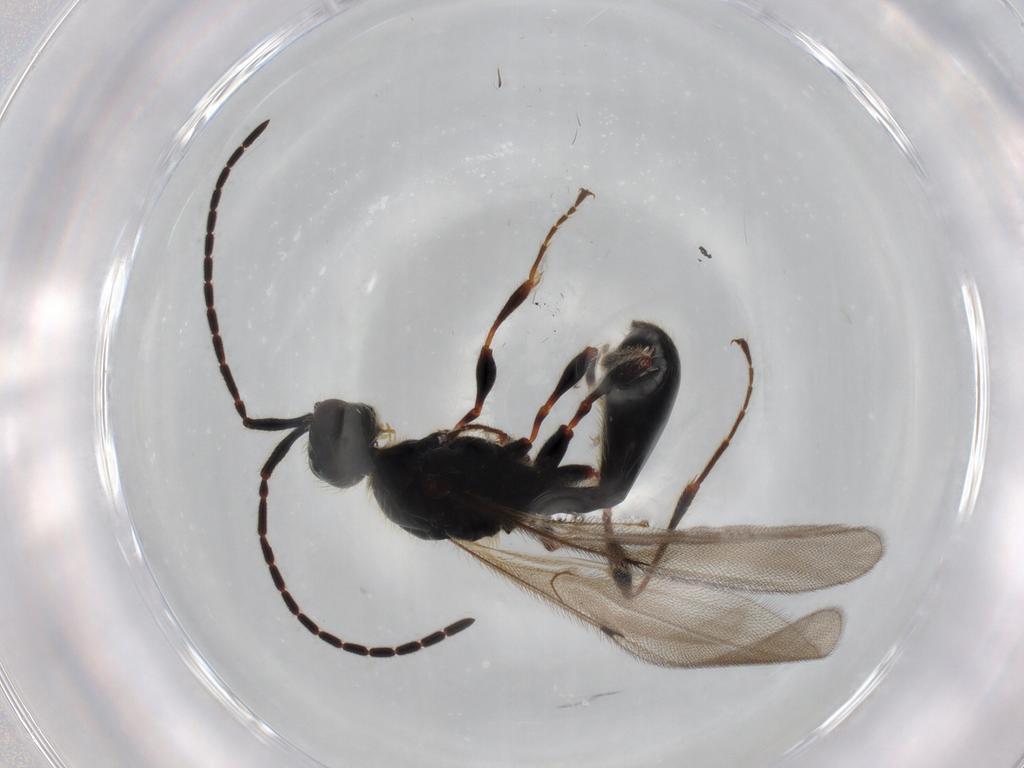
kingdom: Animalia
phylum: Arthropoda
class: Insecta
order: Hymenoptera
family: Diapriidae
